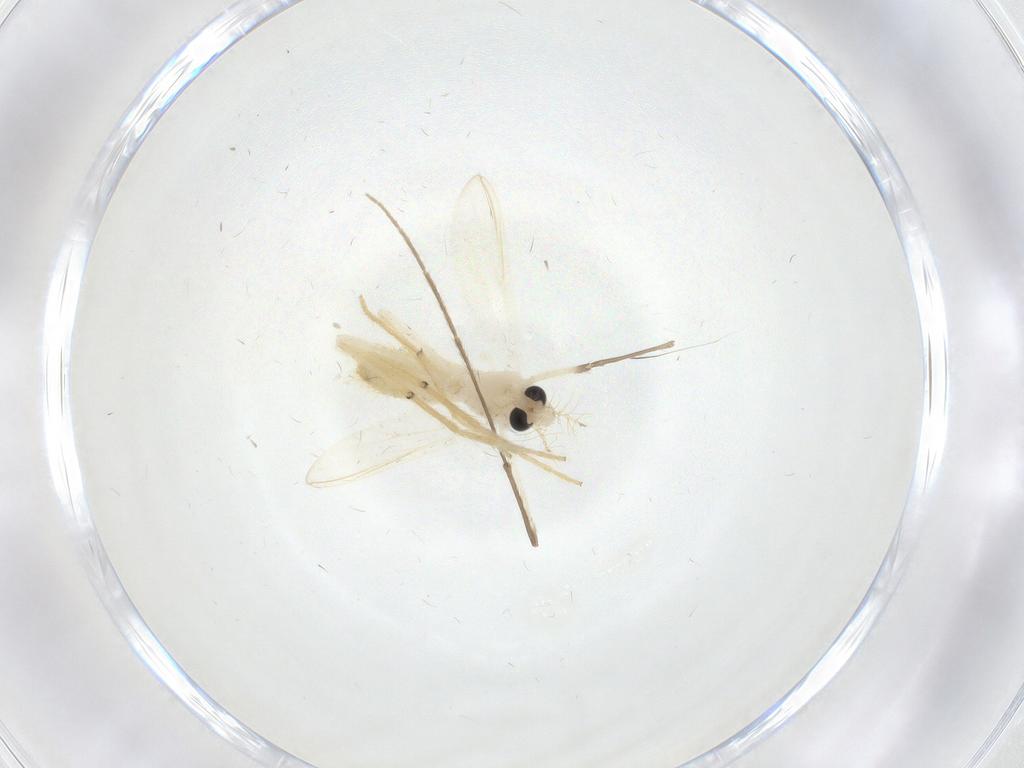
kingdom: Animalia
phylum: Arthropoda
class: Insecta
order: Diptera
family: Chironomidae
